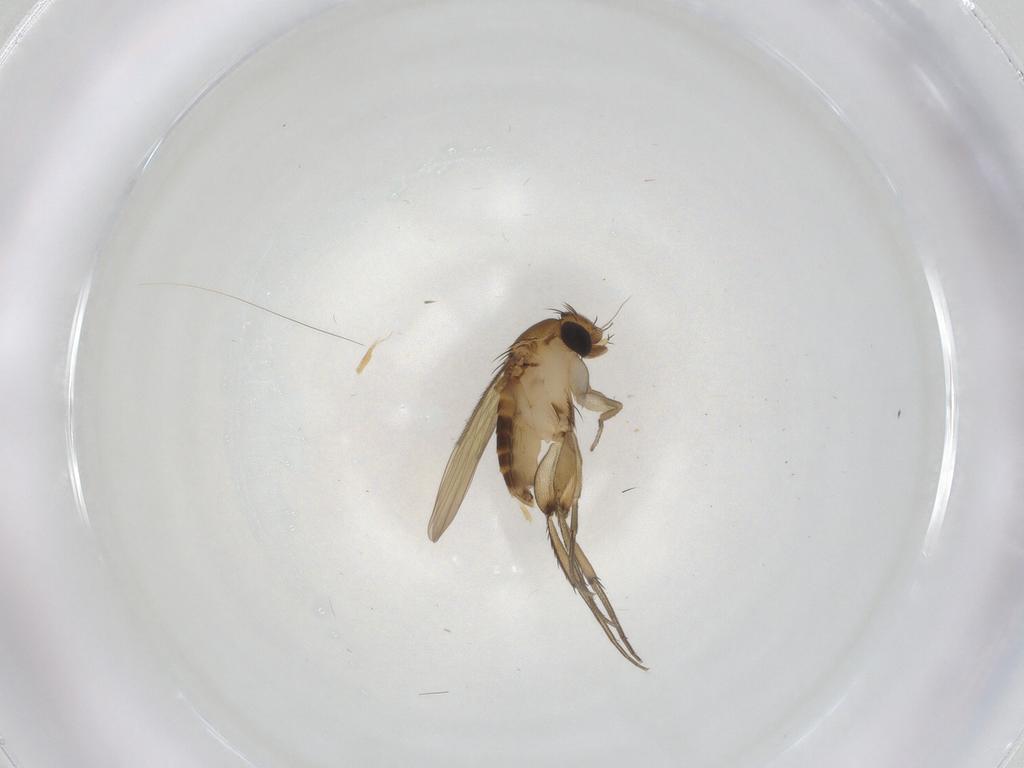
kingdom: Animalia
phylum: Arthropoda
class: Insecta
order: Diptera
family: Phoridae
